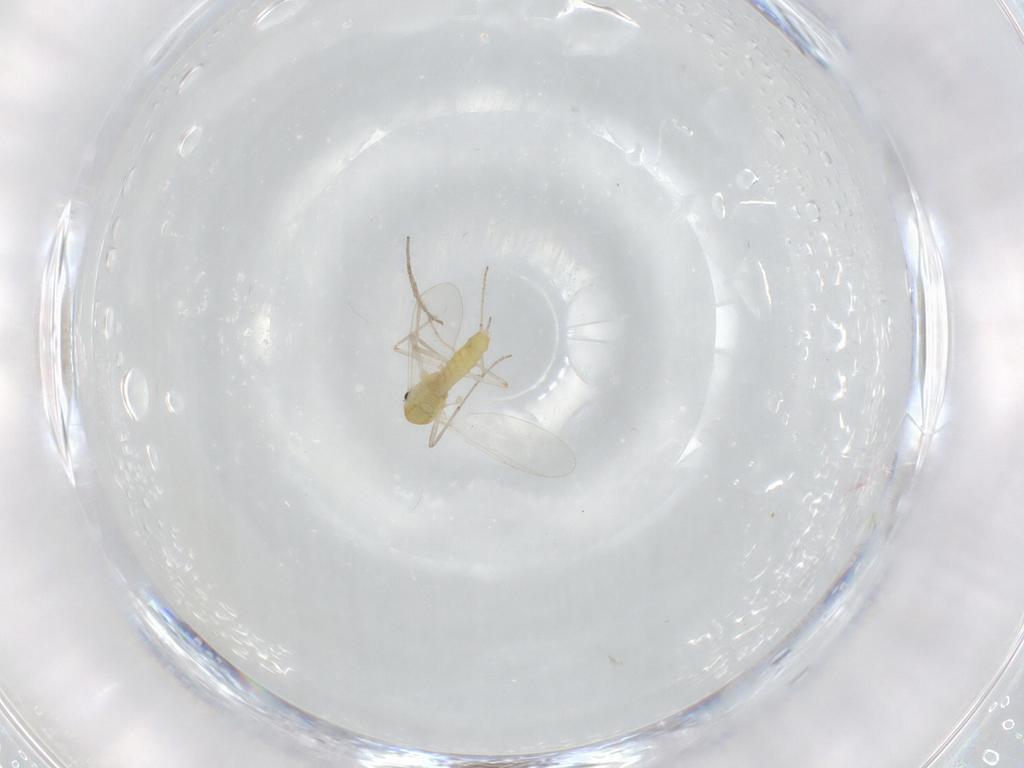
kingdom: Animalia
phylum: Arthropoda
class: Insecta
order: Diptera
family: Chironomidae
